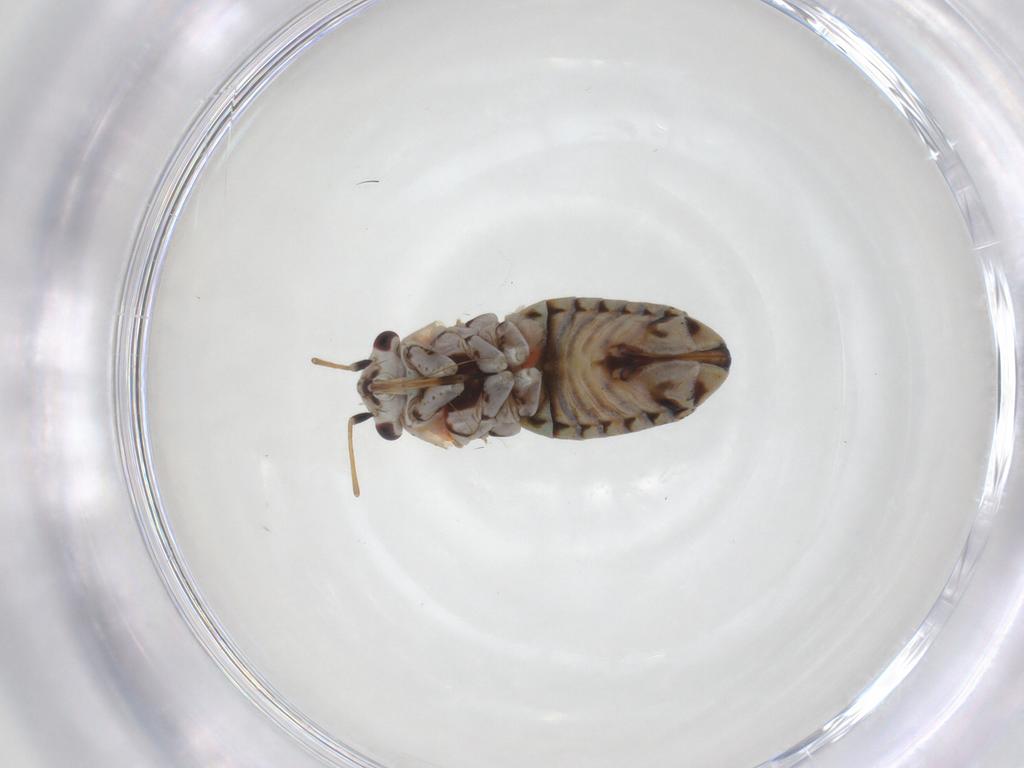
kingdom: Animalia
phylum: Arthropoda
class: Insecta
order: Hemiptera
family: Miridae
